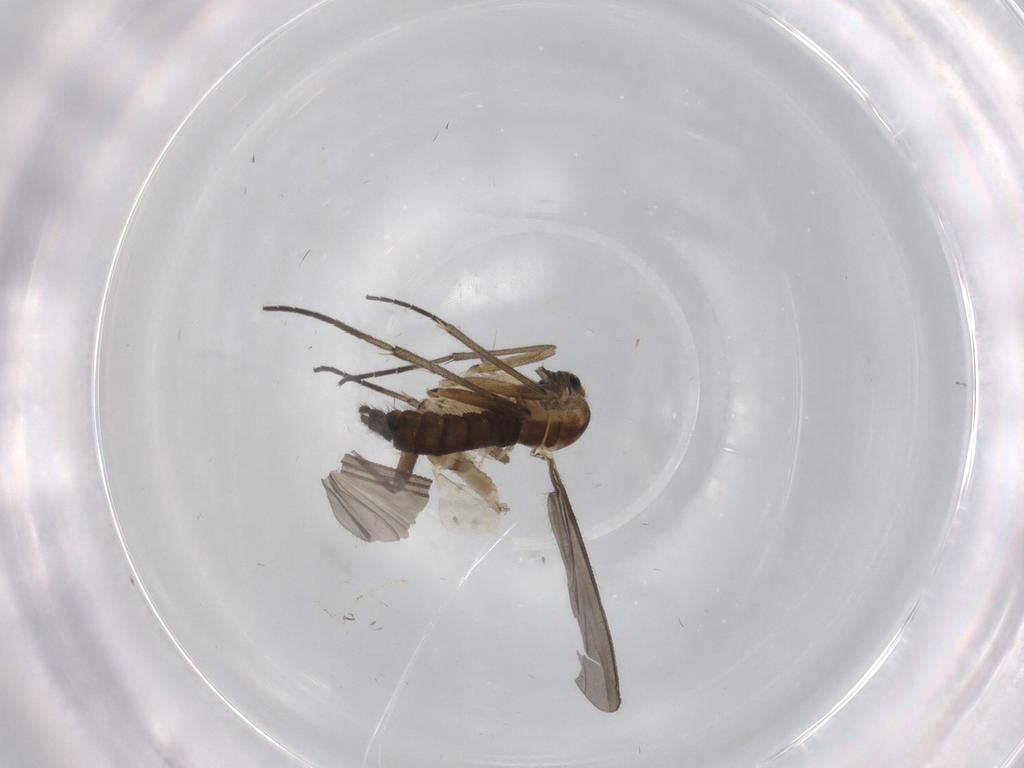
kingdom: Animalia
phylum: Arthropoda
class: Insecta
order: Diptera
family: Sciaridae
